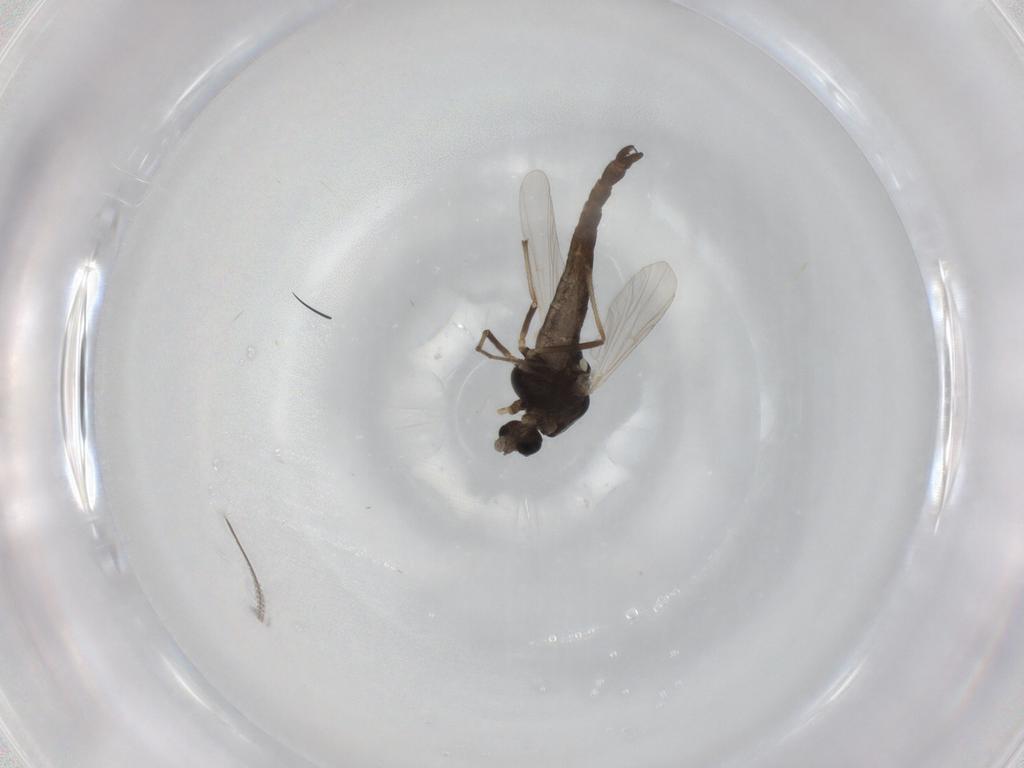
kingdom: Animalia
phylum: Arthropoda
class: Insecta
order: Diptera
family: Chironomidae
